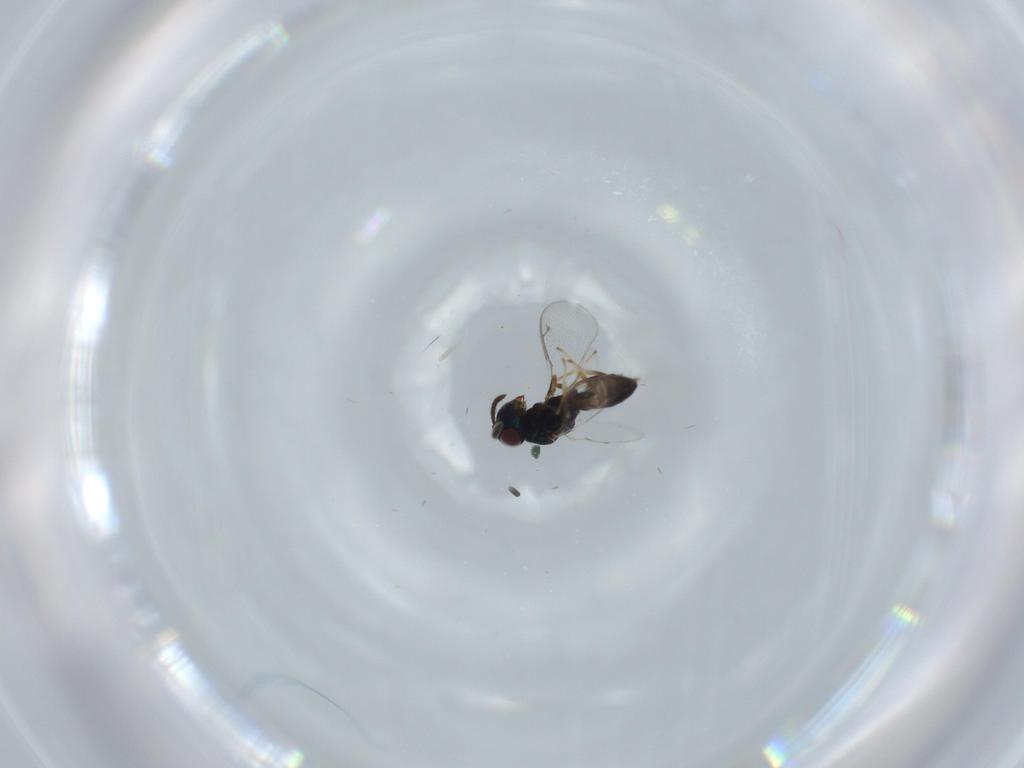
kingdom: Animalia
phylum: Arthropoda
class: Insecta
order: Hymenoptera
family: Pteromalidae
